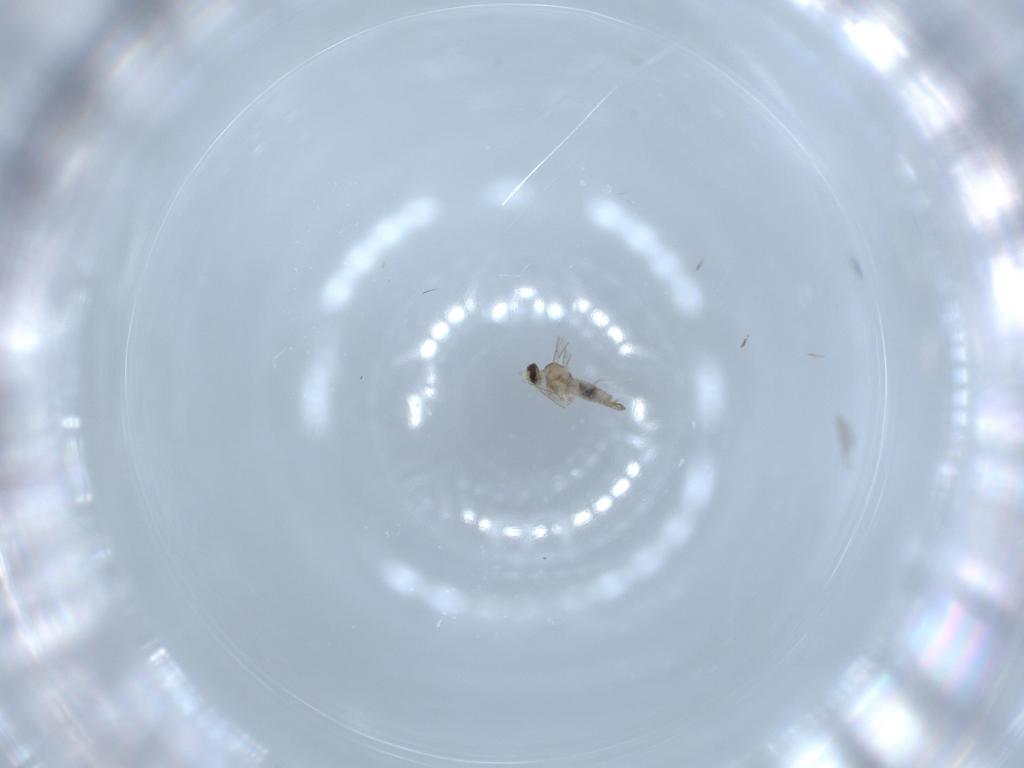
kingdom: Animalia
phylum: Arthropoda
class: Insecta
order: Diptera
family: Cecidomyiidae
